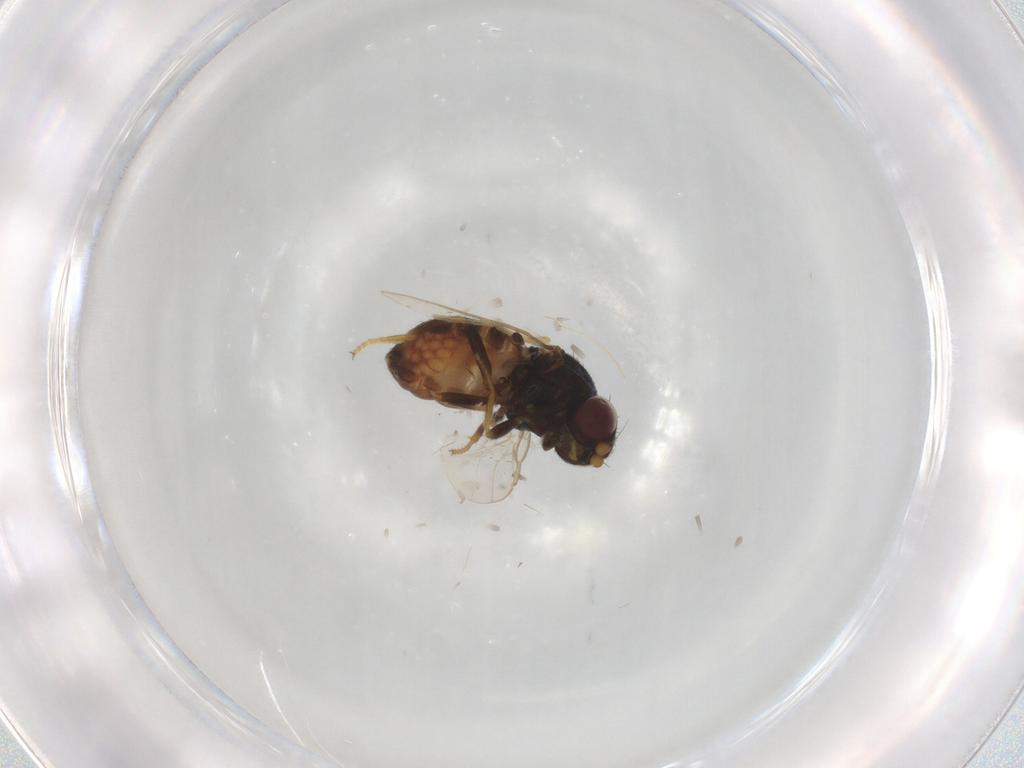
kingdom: Animalia
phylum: Arthropoda
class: Insecta
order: Diptera
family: Chloropidae
